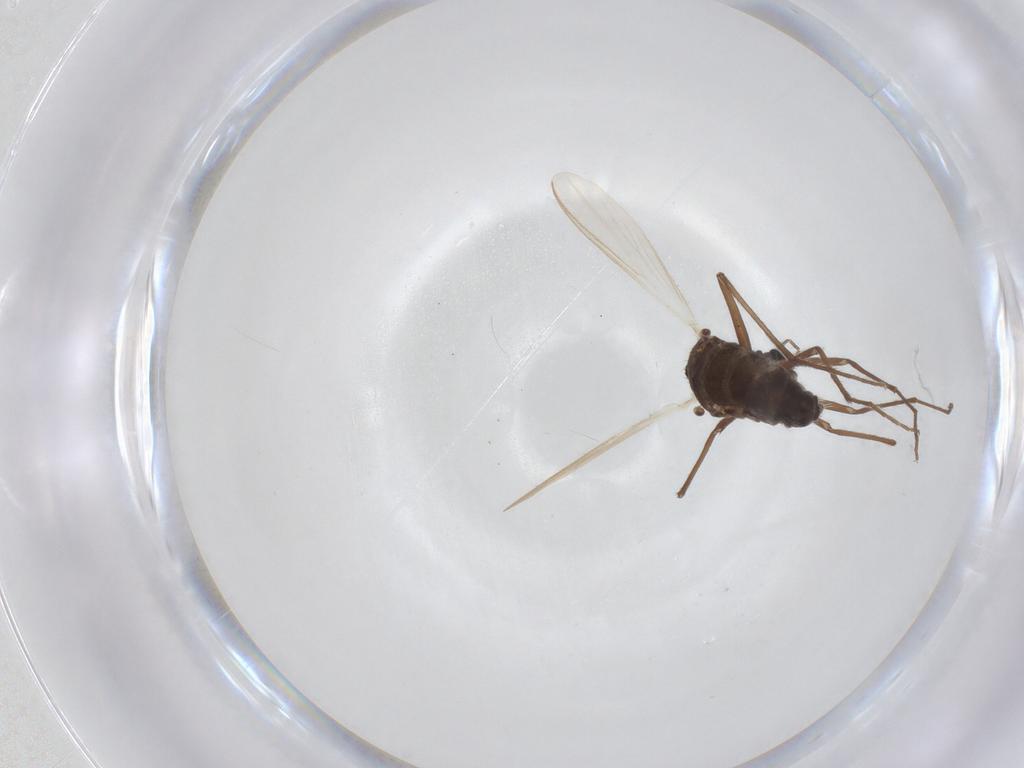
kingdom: Animalia
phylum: Arthropoda
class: Insecta
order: Diptera
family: Chironomidae
